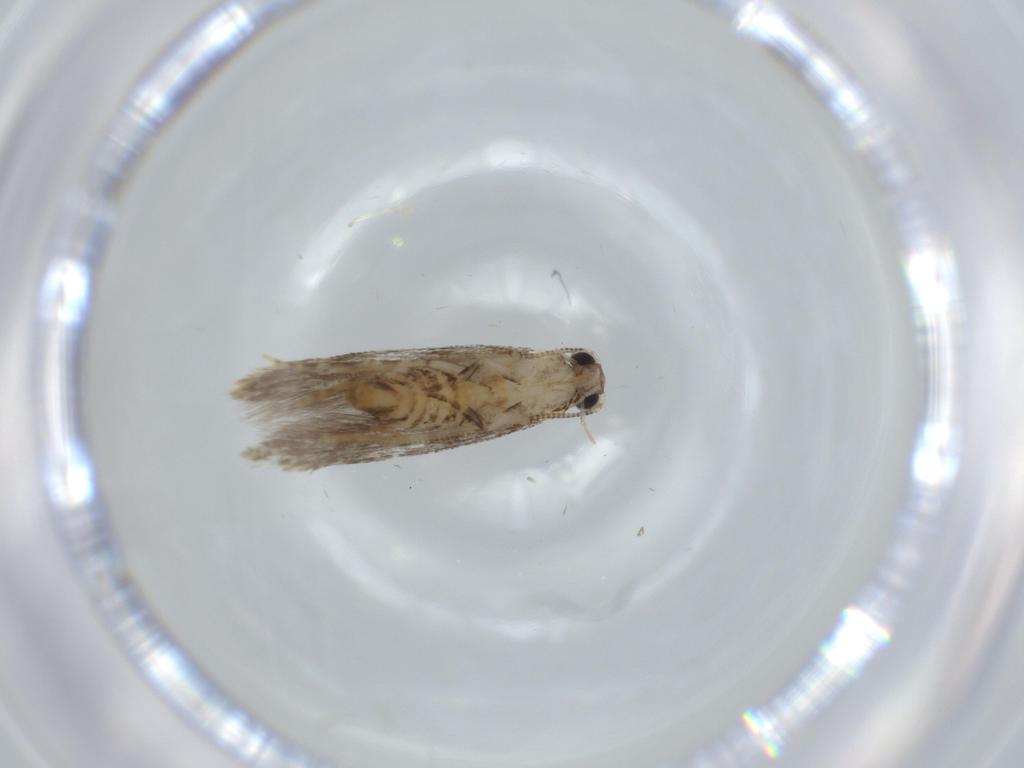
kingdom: Animalia
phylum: Arthropoda
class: Insecta
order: Lepidoptera
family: Tineidae
